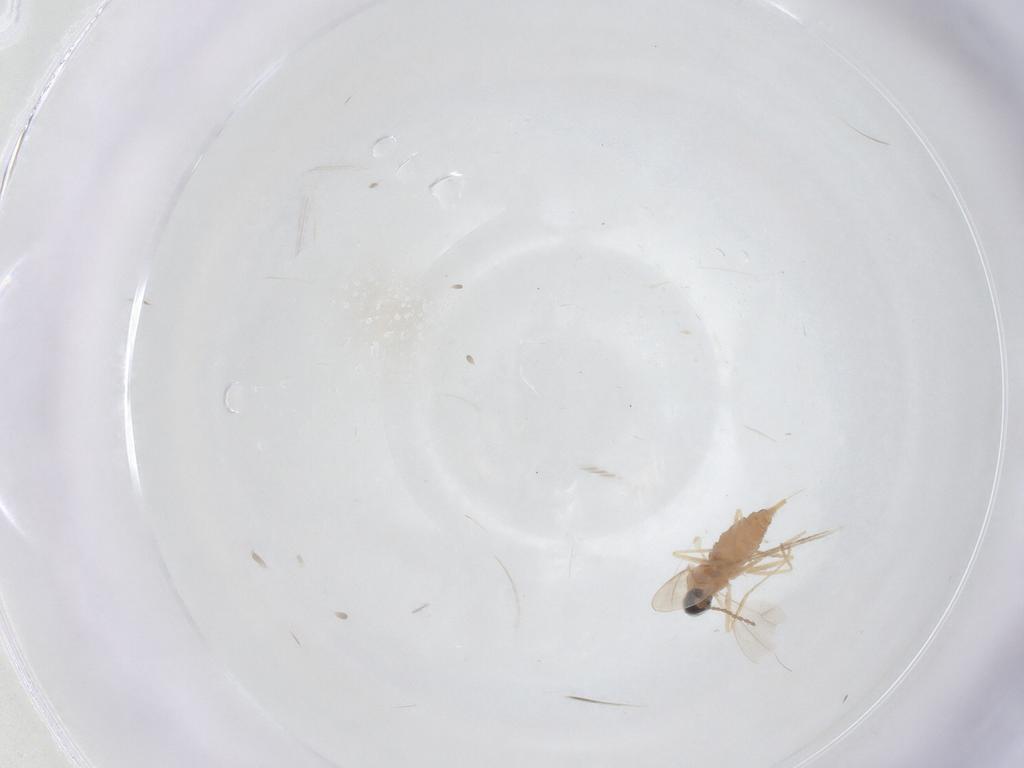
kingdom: Animalia
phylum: Arthropoda
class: Insecta
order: Diptera
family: Cecidomyiidae
